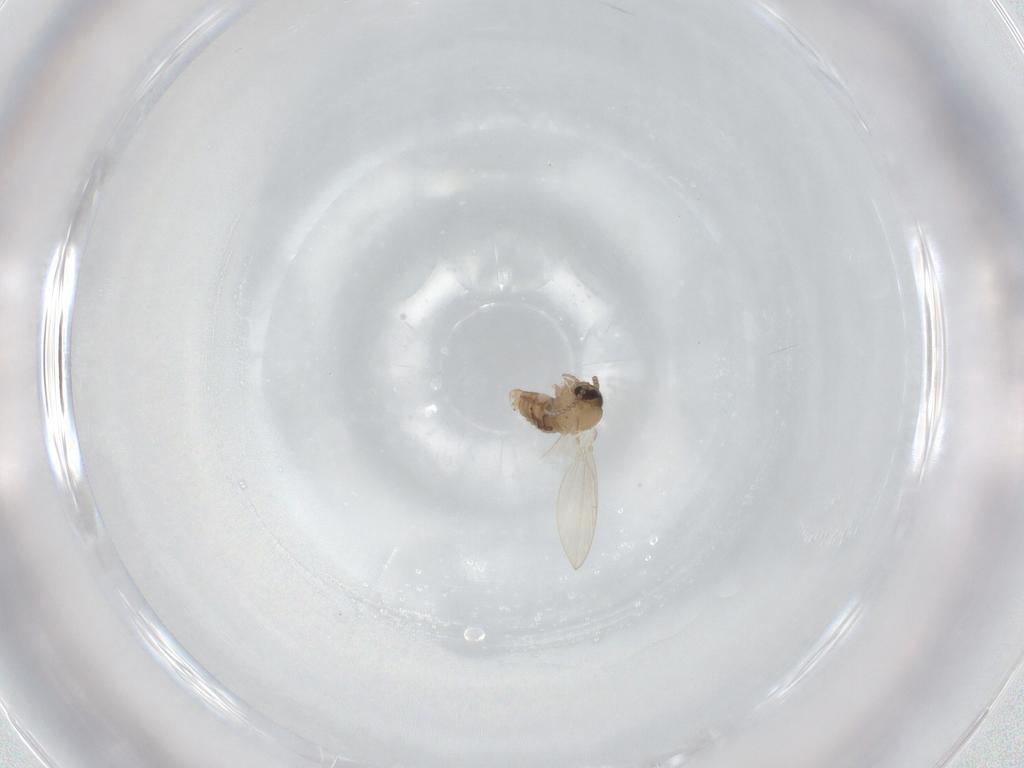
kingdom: Animalia
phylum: Arthropoda
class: Insecta
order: Diptera
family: Psychodidae
